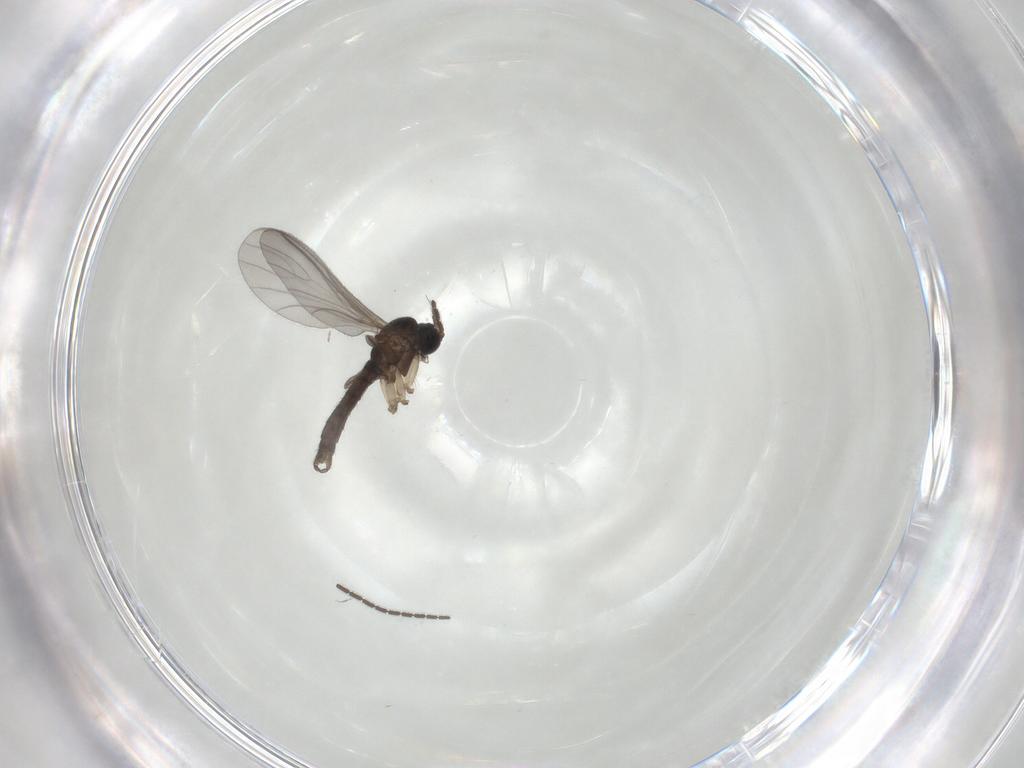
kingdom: Animalia
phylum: Arthropoda
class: Insecta
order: Diptera
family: Sciaridae
